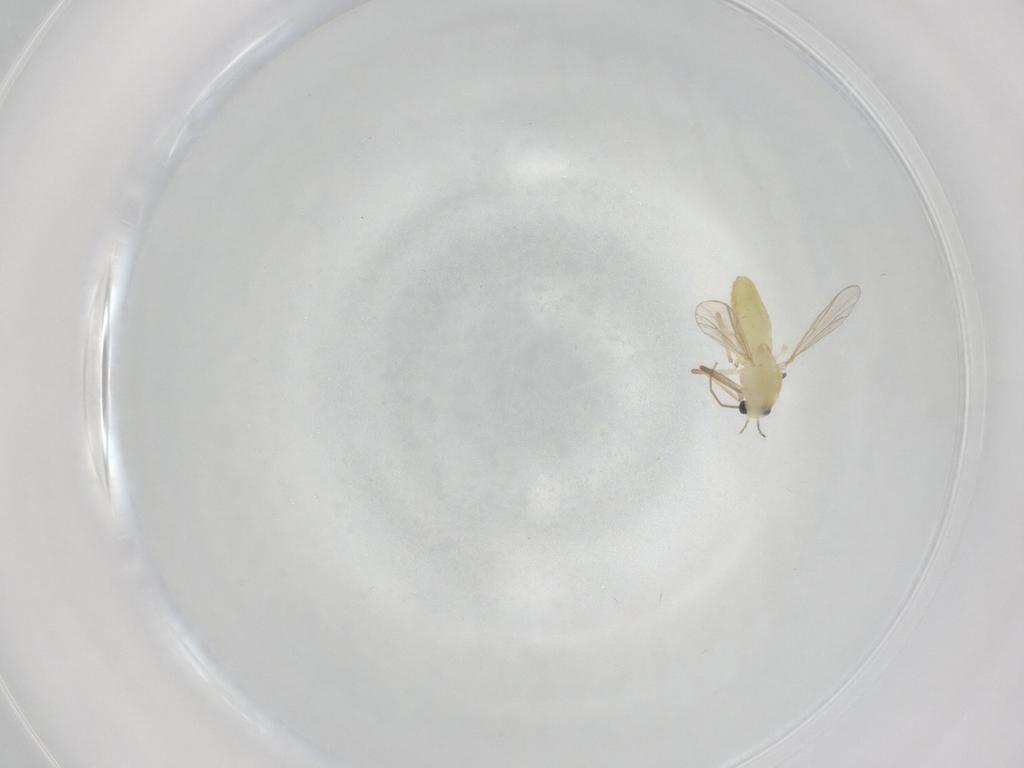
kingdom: Animalia
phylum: Arthropoda
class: Insecta
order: Diptera
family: Chironomidae
